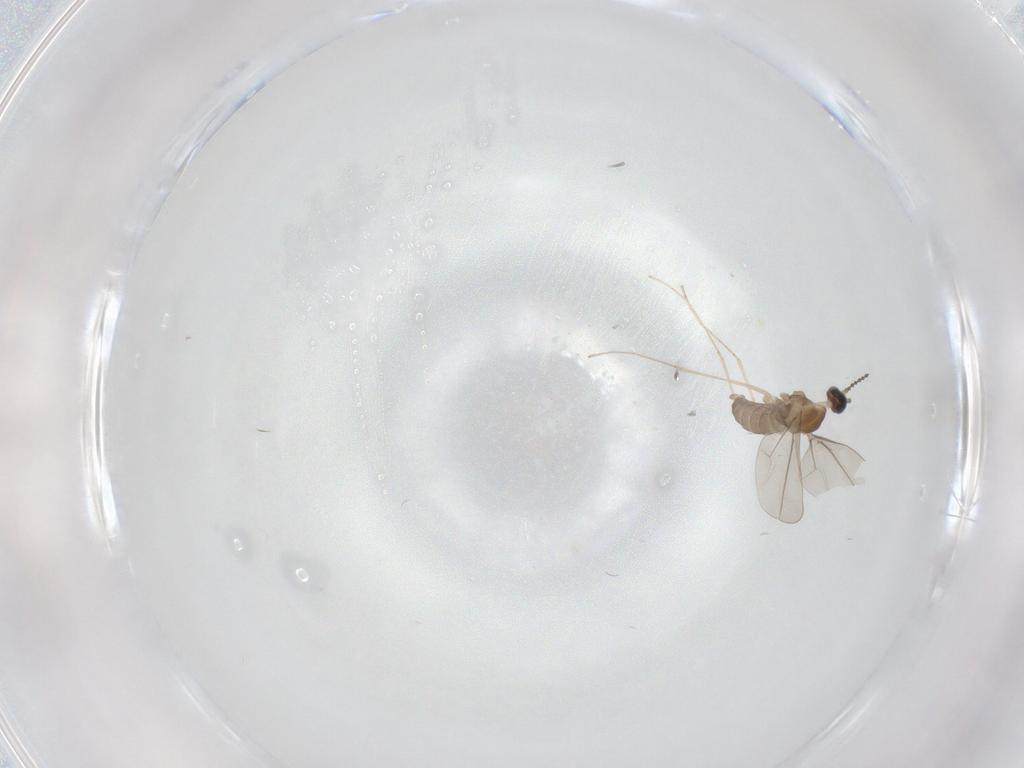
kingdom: Animalia
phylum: Arthropoda
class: Insecta
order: Diptera
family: Cecidomyiidae
